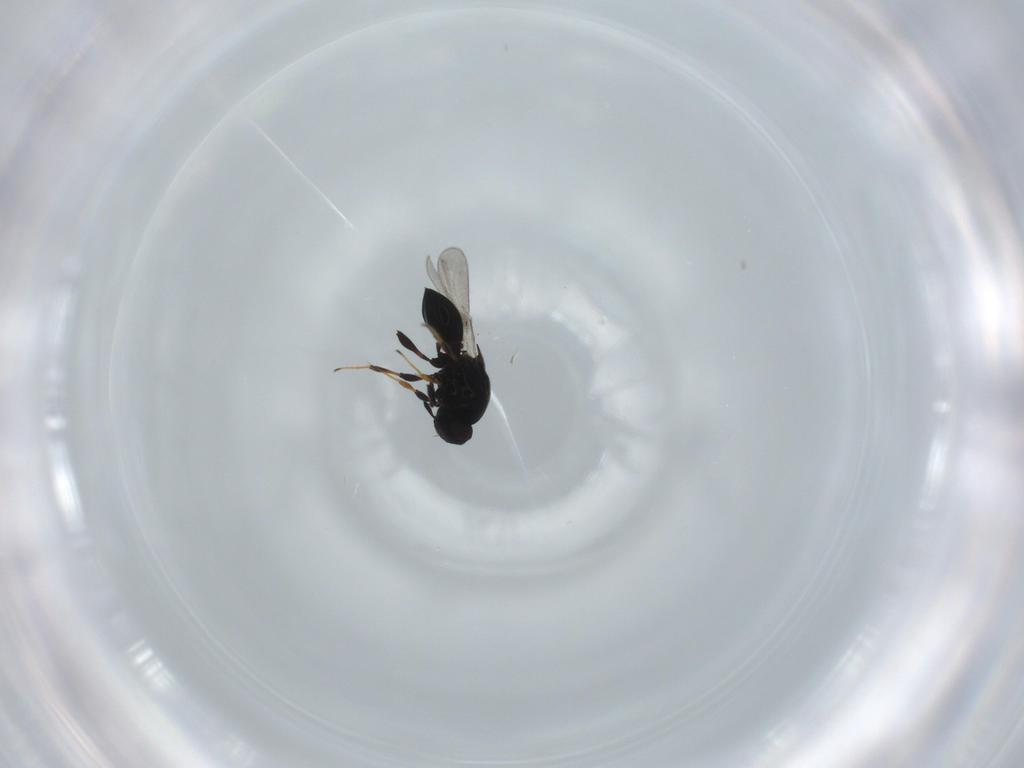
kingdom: Animalia
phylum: Arthropoda
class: Insecta
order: Hymenoptera
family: Platygastridae
